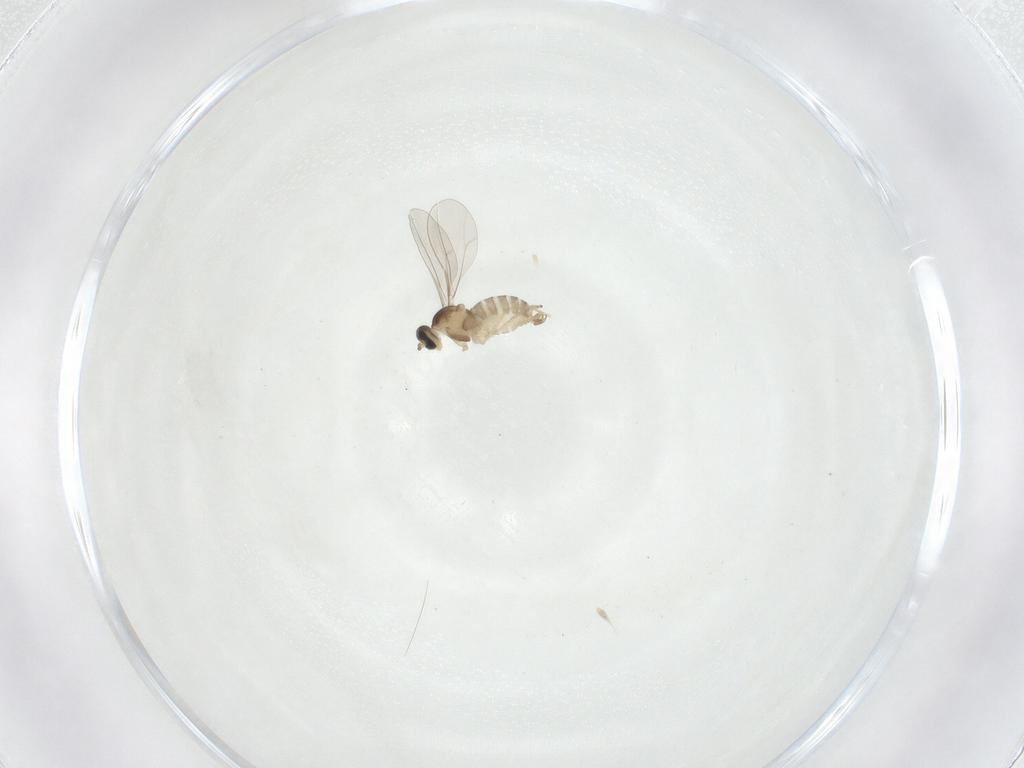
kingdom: Animalia
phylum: Arthropoda
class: Insecta
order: Diptera
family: Cecidomyiidae
